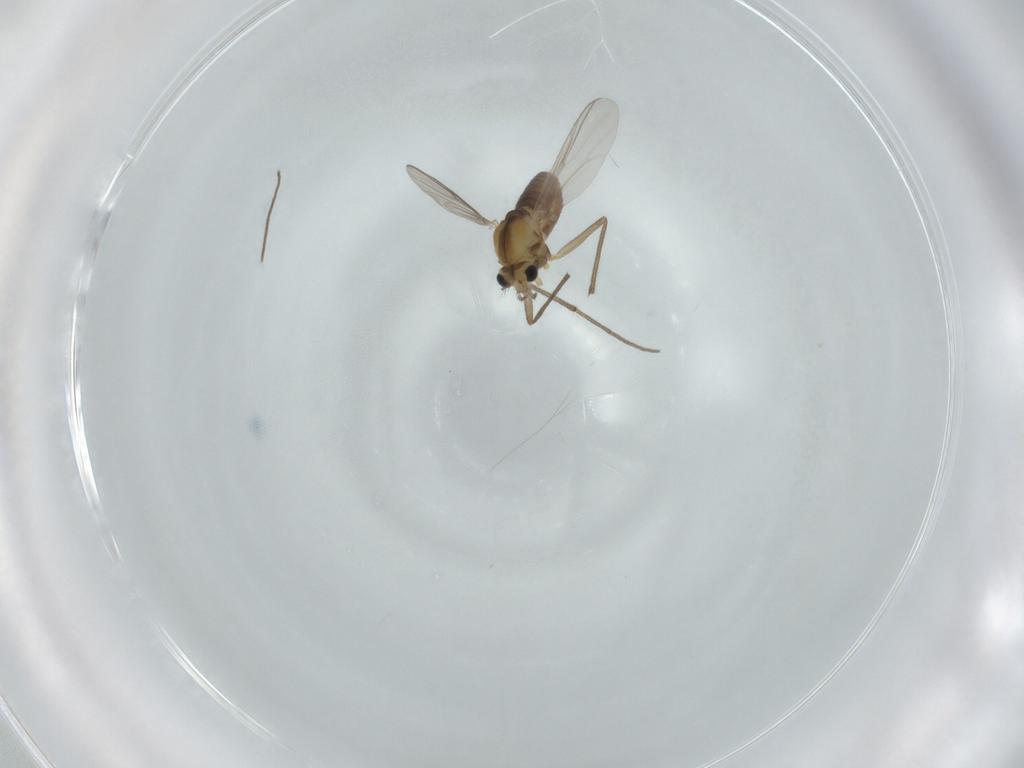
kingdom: Animalia
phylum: Arthropoda
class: Insecta
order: Diptera
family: Chironomidae
